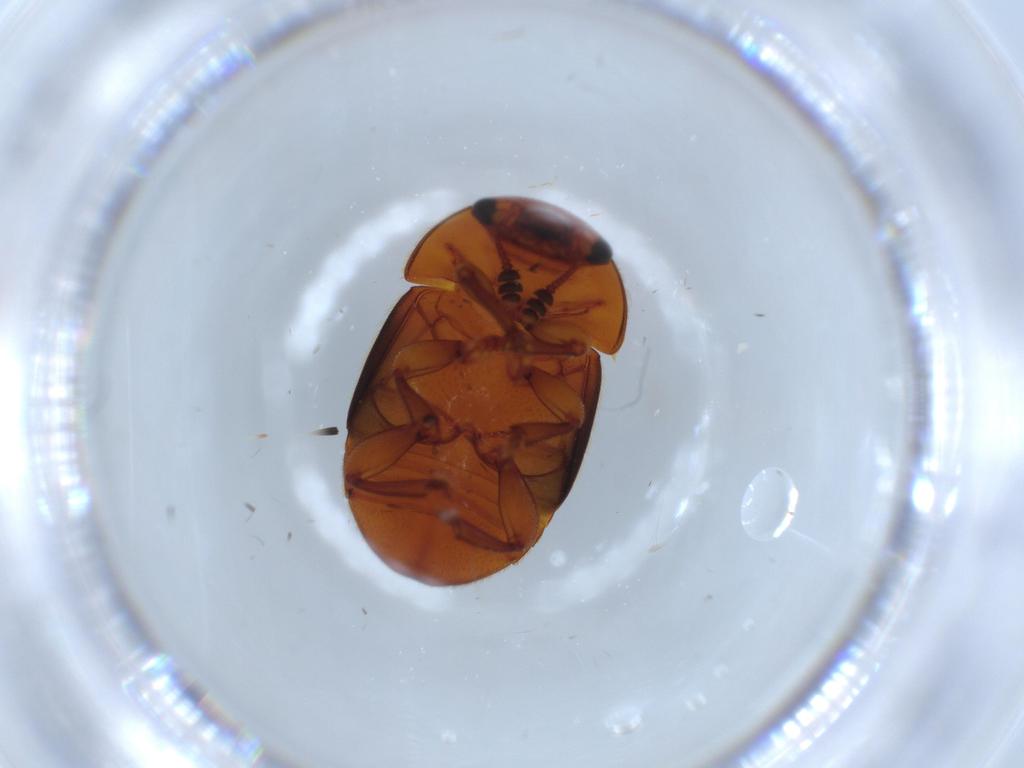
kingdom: Animalia
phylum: Arthropoda
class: Insecta
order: Coleoptera
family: Nitidulidae
